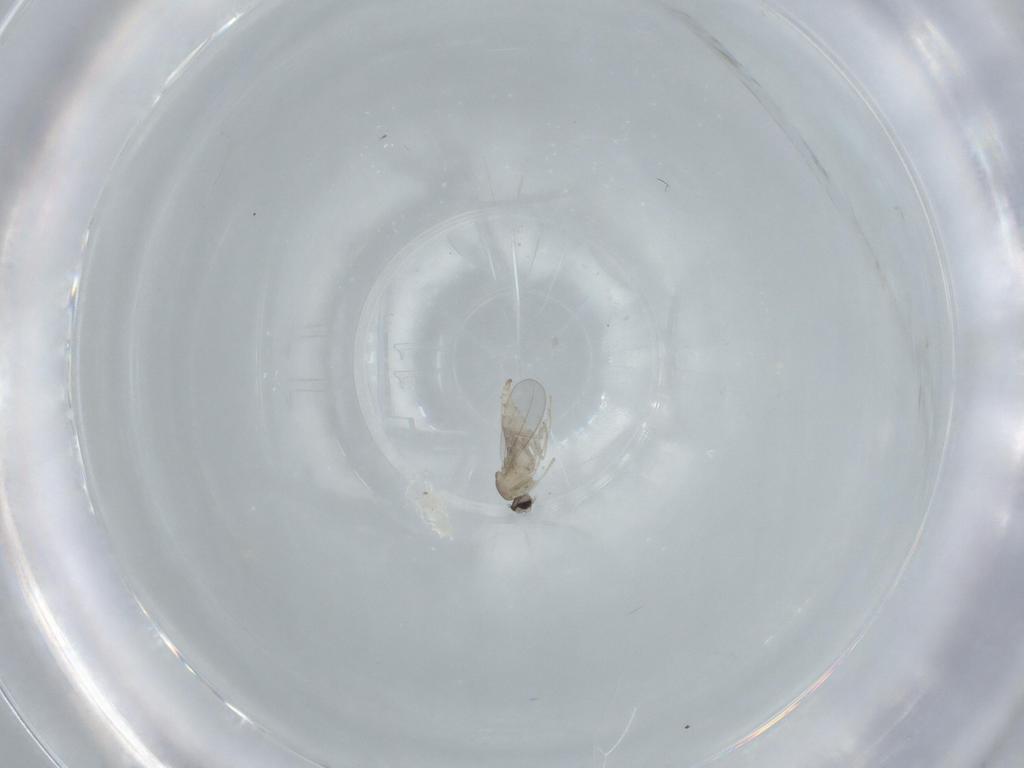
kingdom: Animalia
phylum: Arthropoda
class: Insecta
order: Diptera
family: Cecidomyiidae
